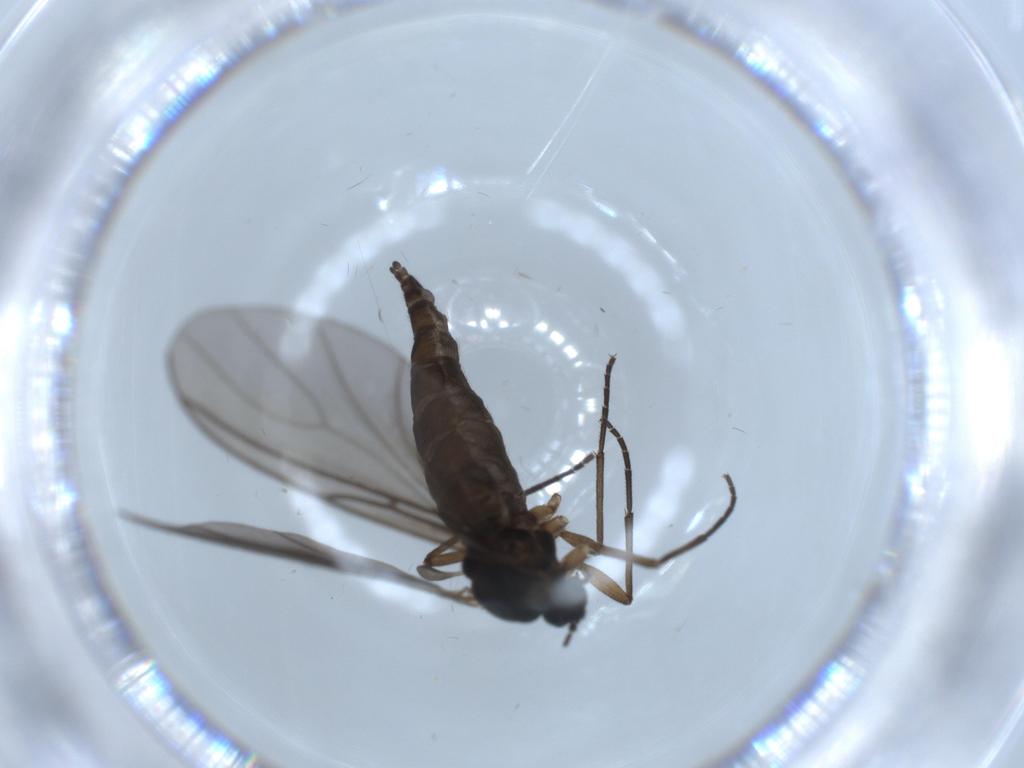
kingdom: Animalia
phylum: Arthropoda
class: Insecta
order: Diptera
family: Sciaridae
